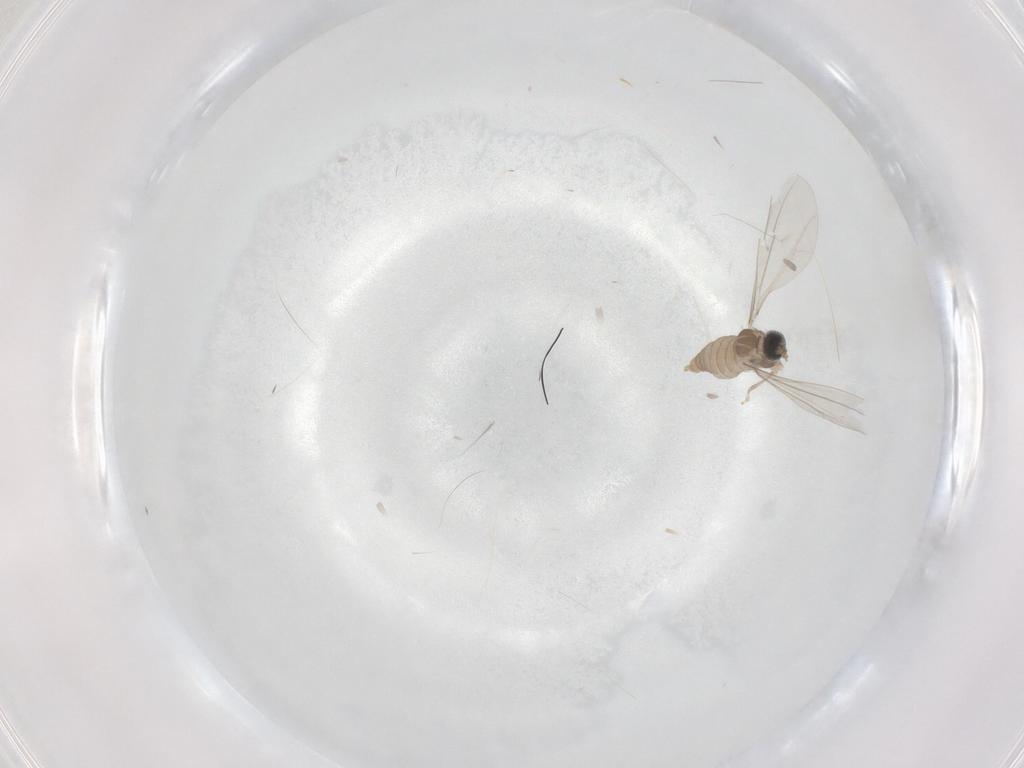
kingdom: Animalia
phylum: Arthropoda
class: Insecta
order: Diptera
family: Cecidomyiidae
